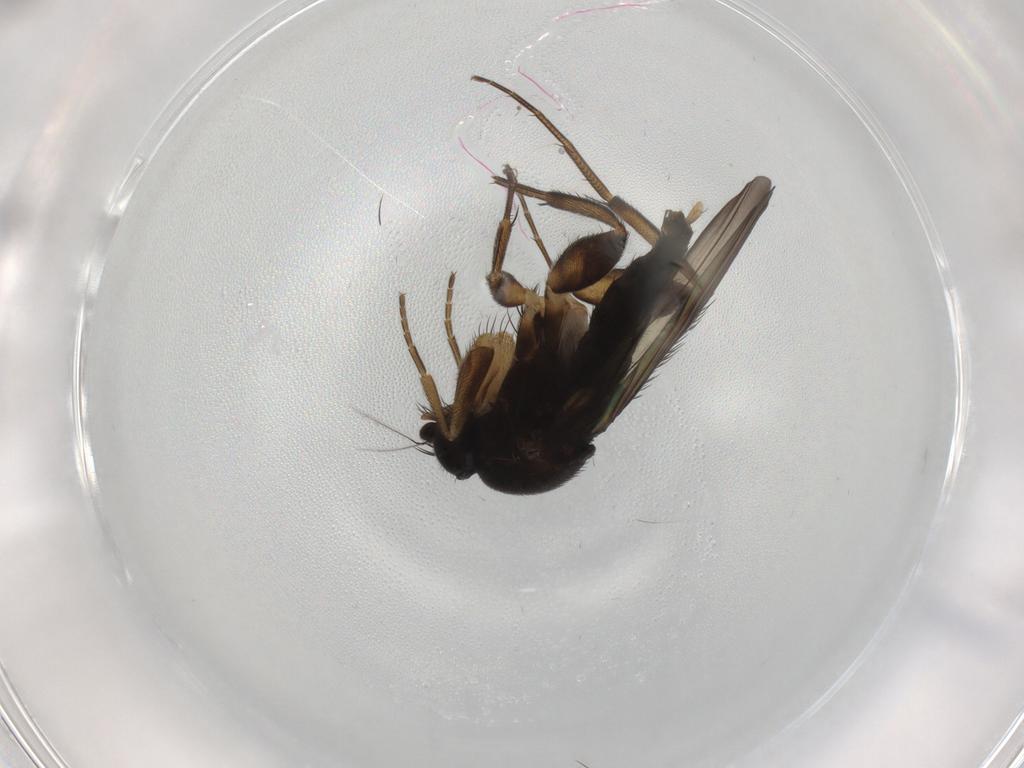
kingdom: Animalia
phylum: Arthropoda
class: Insecta
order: Diptera
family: Phoridae
